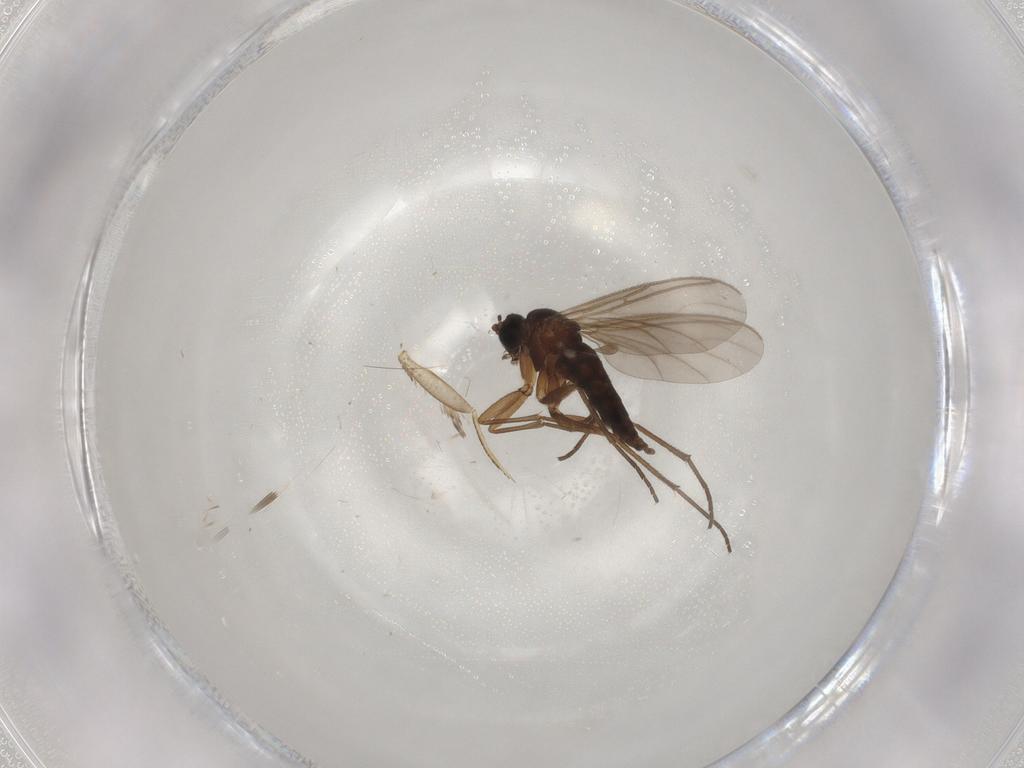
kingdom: Animalia
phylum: Arthropoda
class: Insecta
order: Diptera
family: Sciaridae
